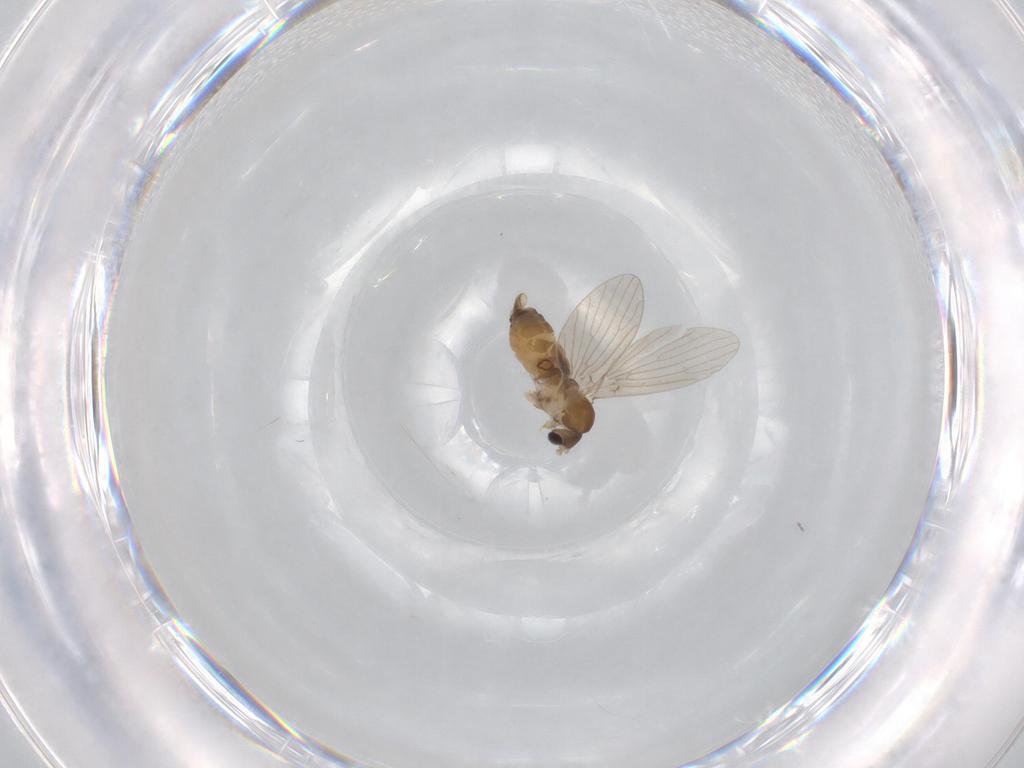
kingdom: Animalia
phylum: Arthropoda
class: Insecta
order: Diptera
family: Psychodidae
